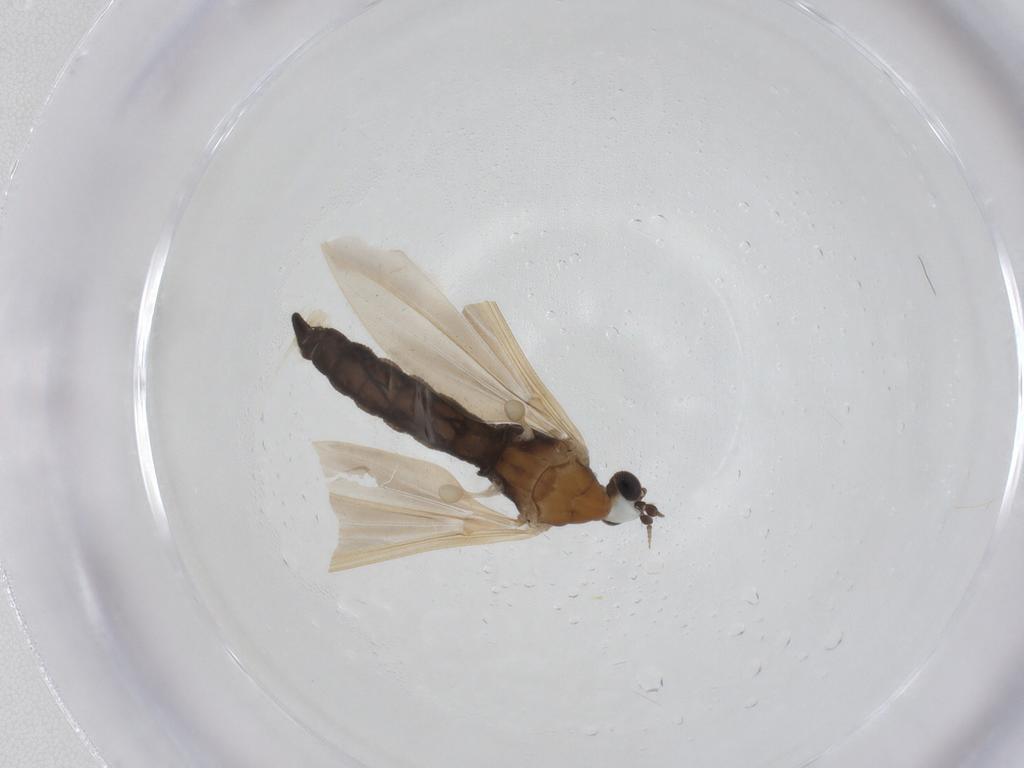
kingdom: Animalia
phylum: Arthropoda
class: Insecta
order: Diptera
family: Limoniidae
